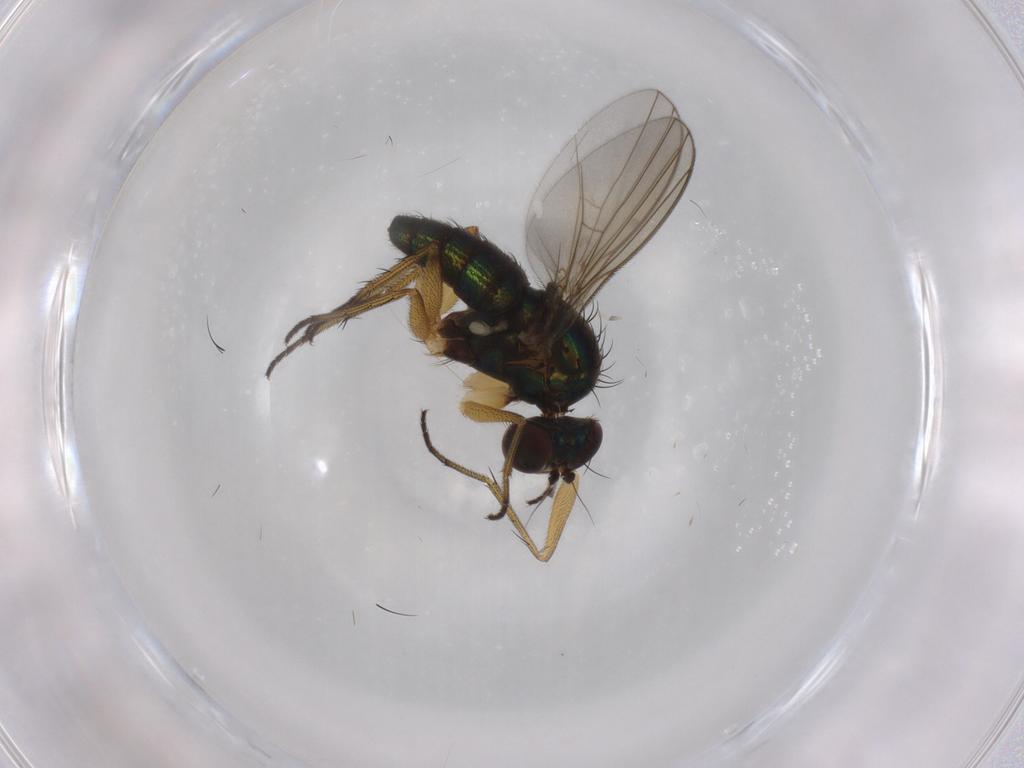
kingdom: Animalia
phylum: Arthropoda
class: Insecta
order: Diptera
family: Dolichopodidae
